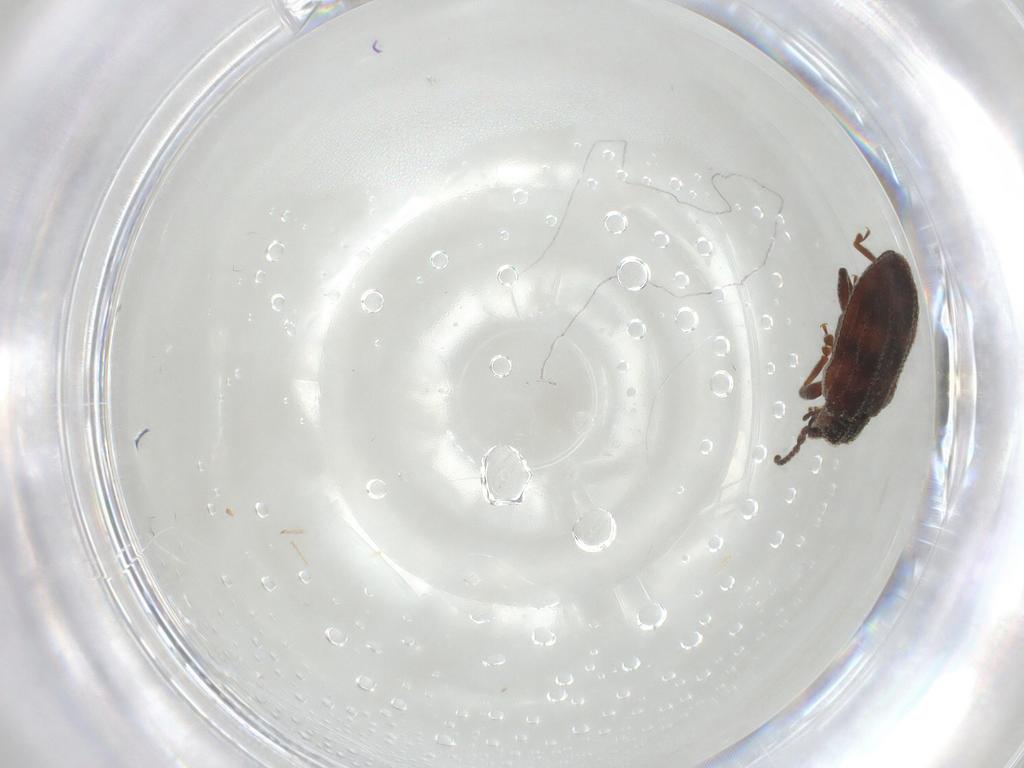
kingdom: Animalia
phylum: Arthropoda
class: Insecta
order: Coleoptera
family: Zopheridae
